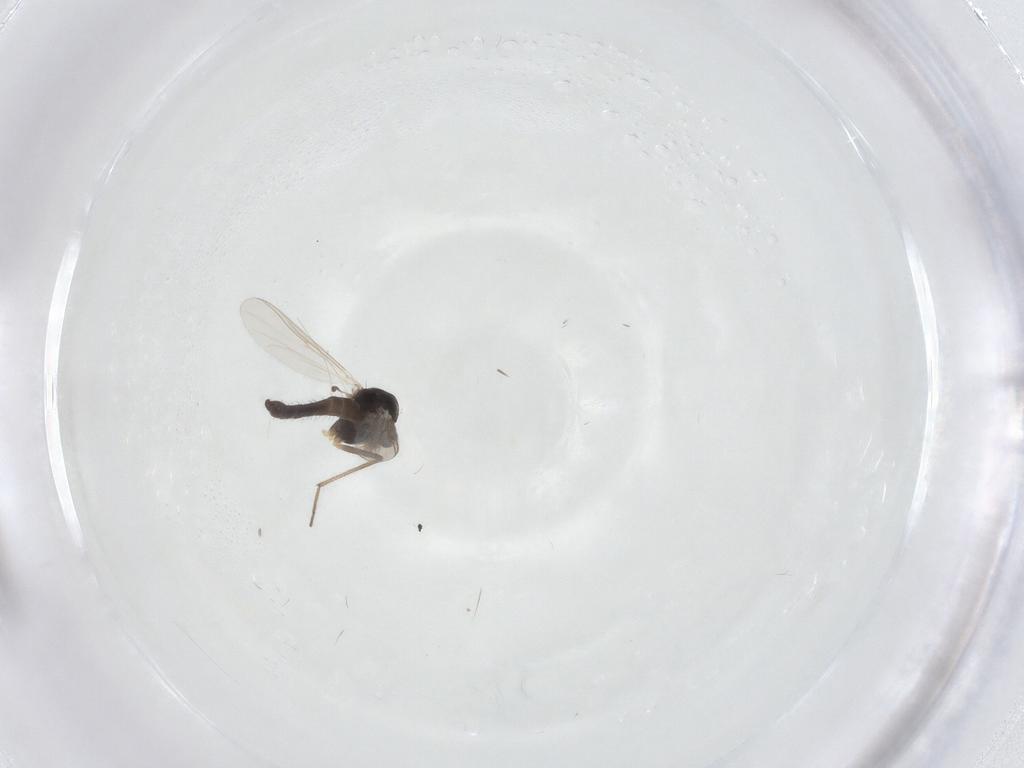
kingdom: Animalia
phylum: Arthropoda
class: Insecta
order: Diptera
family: Chironomidae
